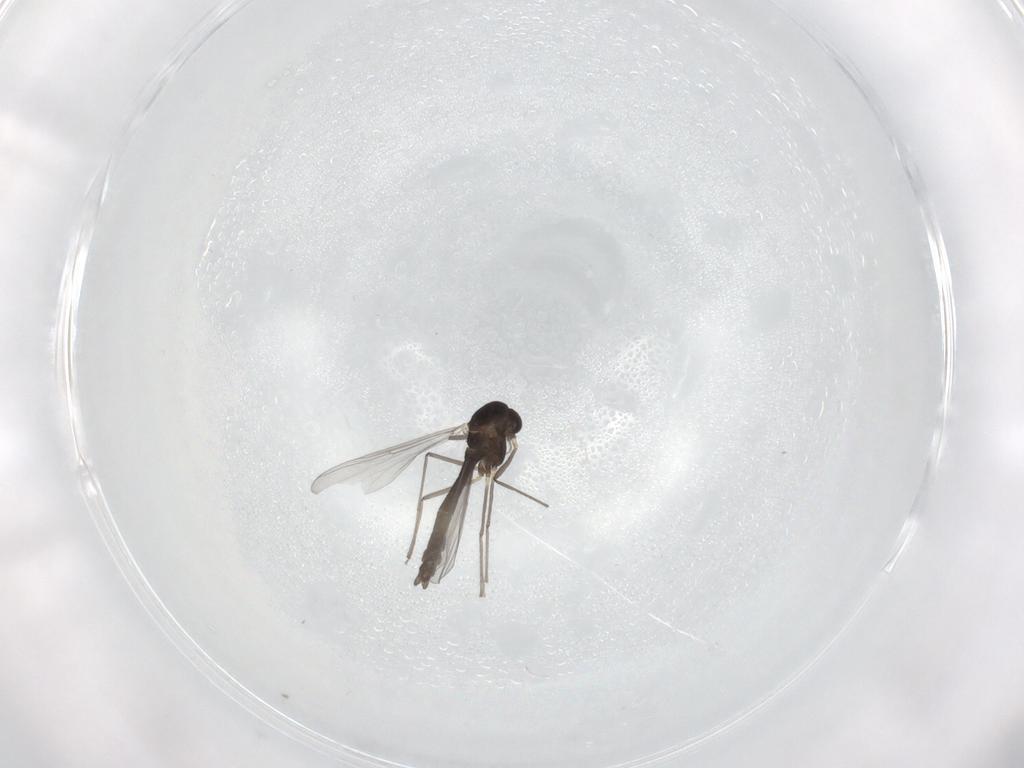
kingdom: Animalia
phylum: Arthropoda
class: Insecta
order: Diptera
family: Chironomidae
